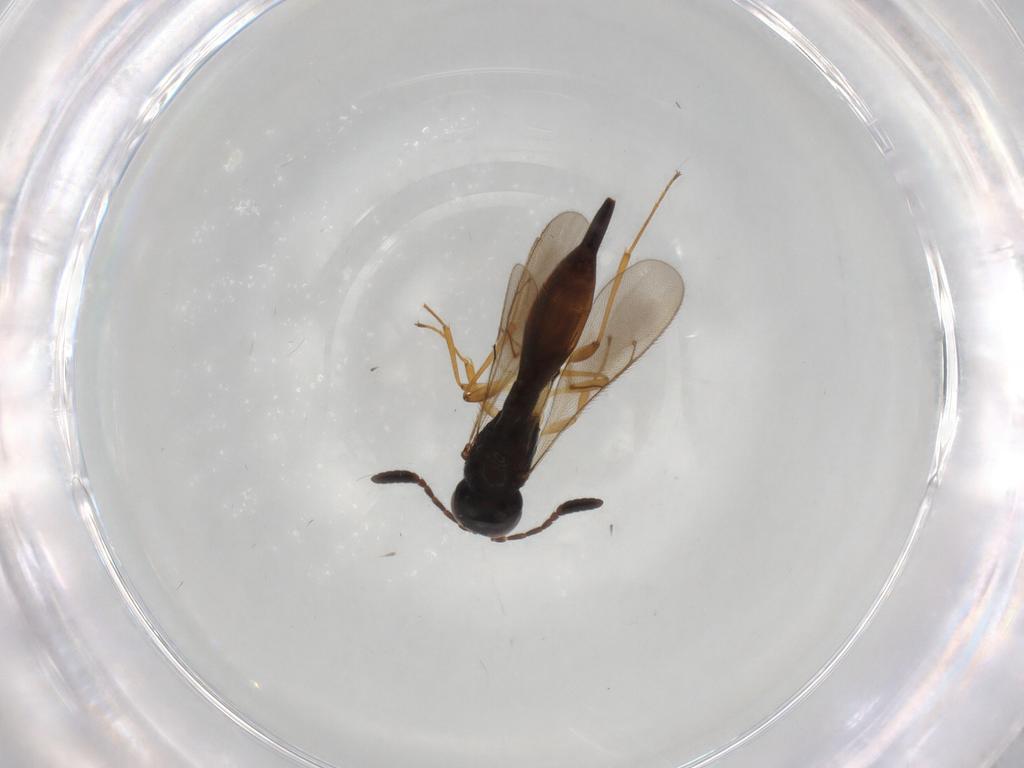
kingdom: Animalia
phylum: Arthropoda
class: Insecta
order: Hymenoptera
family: Scelionidae
